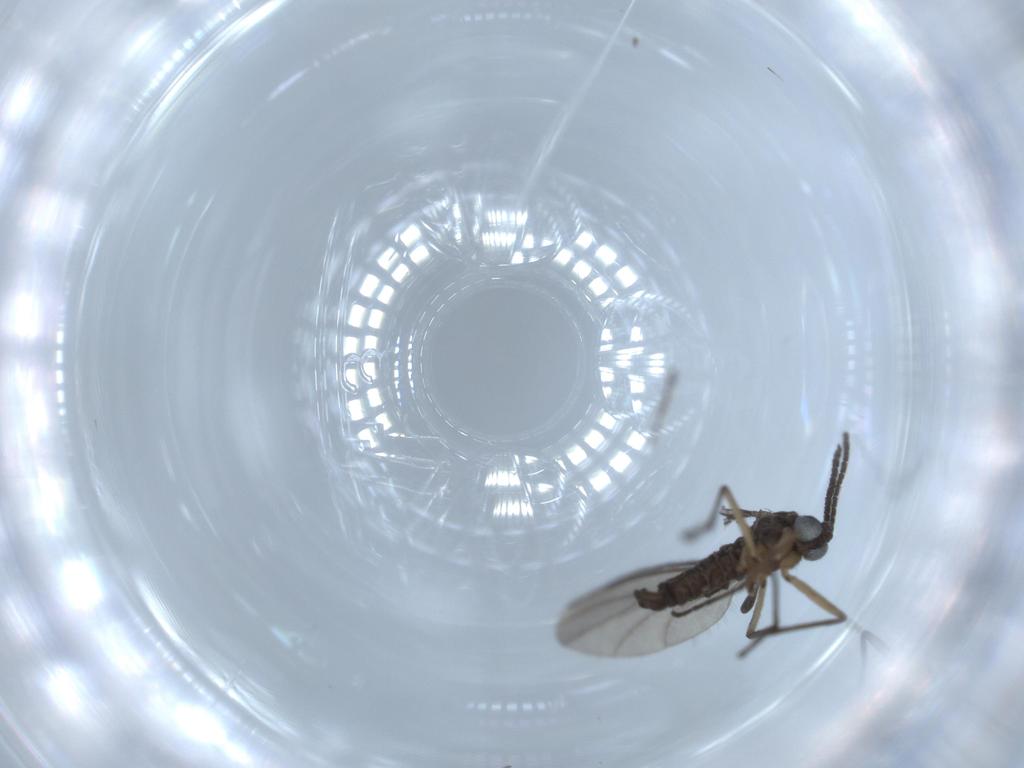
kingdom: Animalia
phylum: Arthropoda
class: Insecta
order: Diptera
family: Sciaridae
